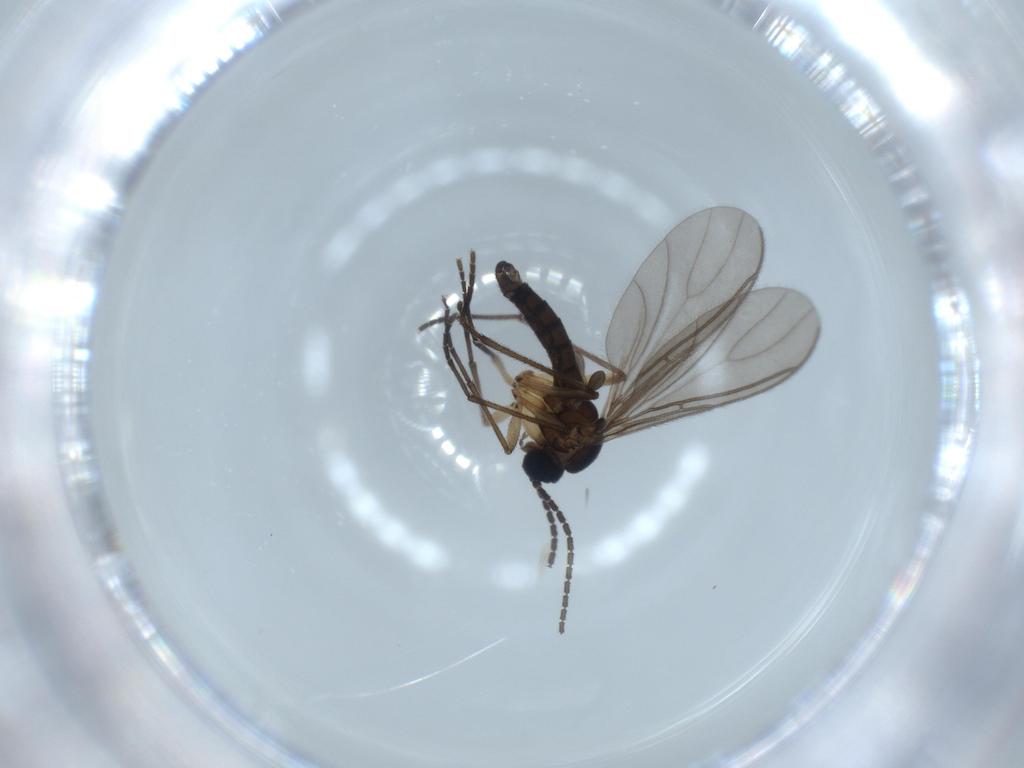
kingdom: Animalia
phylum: Arthropoda
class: Insecta
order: Diptera
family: Sciaridae
